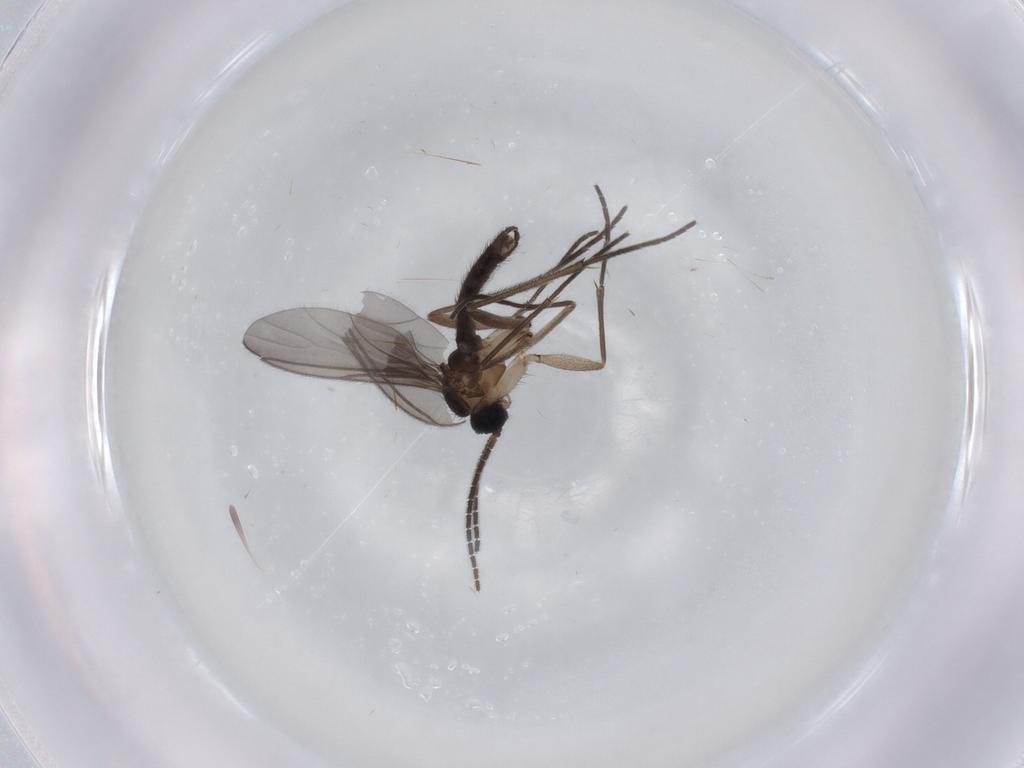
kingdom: Animalia
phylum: Arthropoda
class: Insecta
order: Diptera
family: Sciaridae
